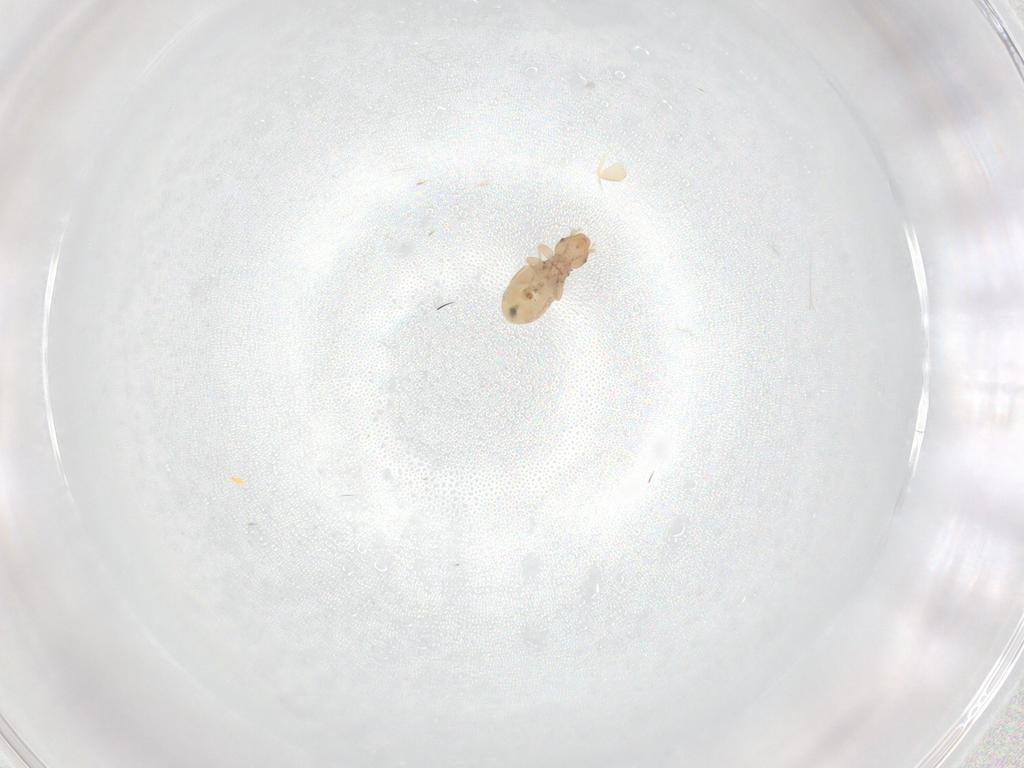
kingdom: Animalia
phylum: Arthropoda
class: Insecta
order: Psocodea
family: Liposcelididae
